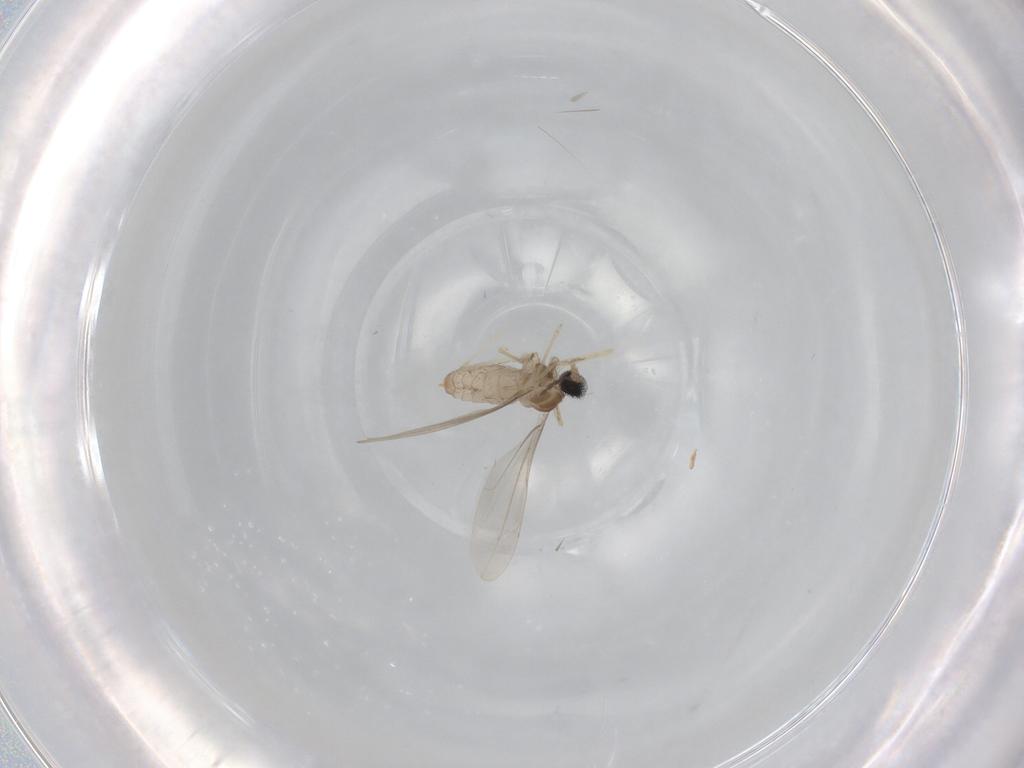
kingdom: Animalia
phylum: Arthropoda
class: Insecta
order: Diptera
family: Cecidomyiidae
